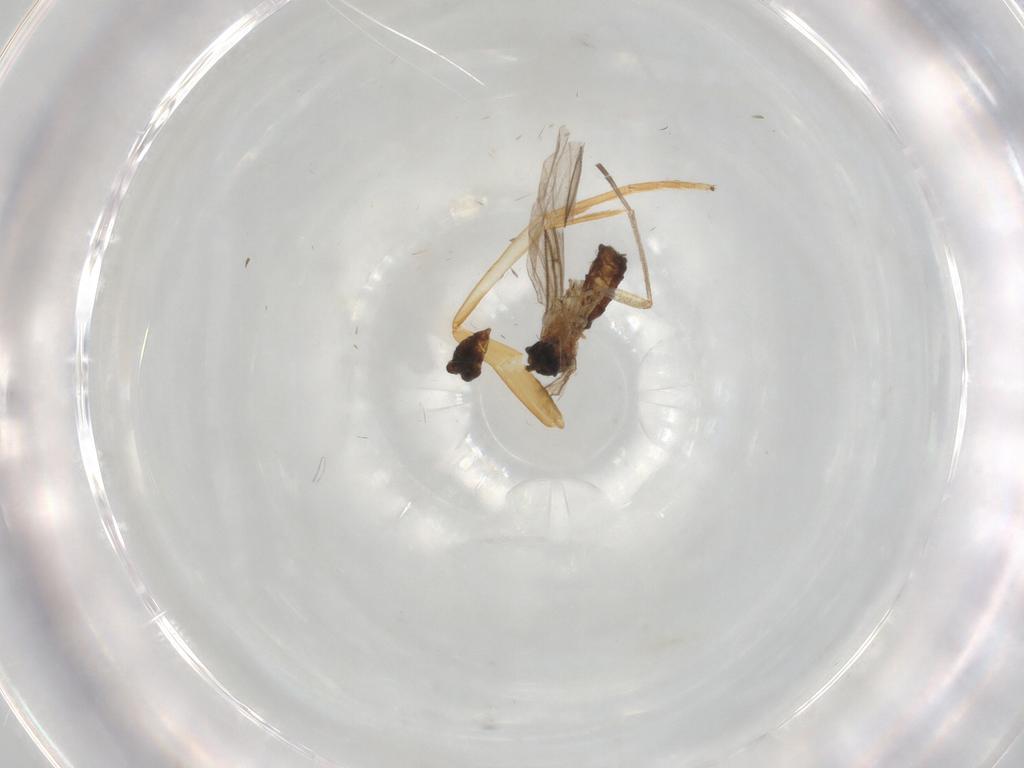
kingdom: Animalia
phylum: Arthropoda
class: Insecta
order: Diptera
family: Sciaridae
